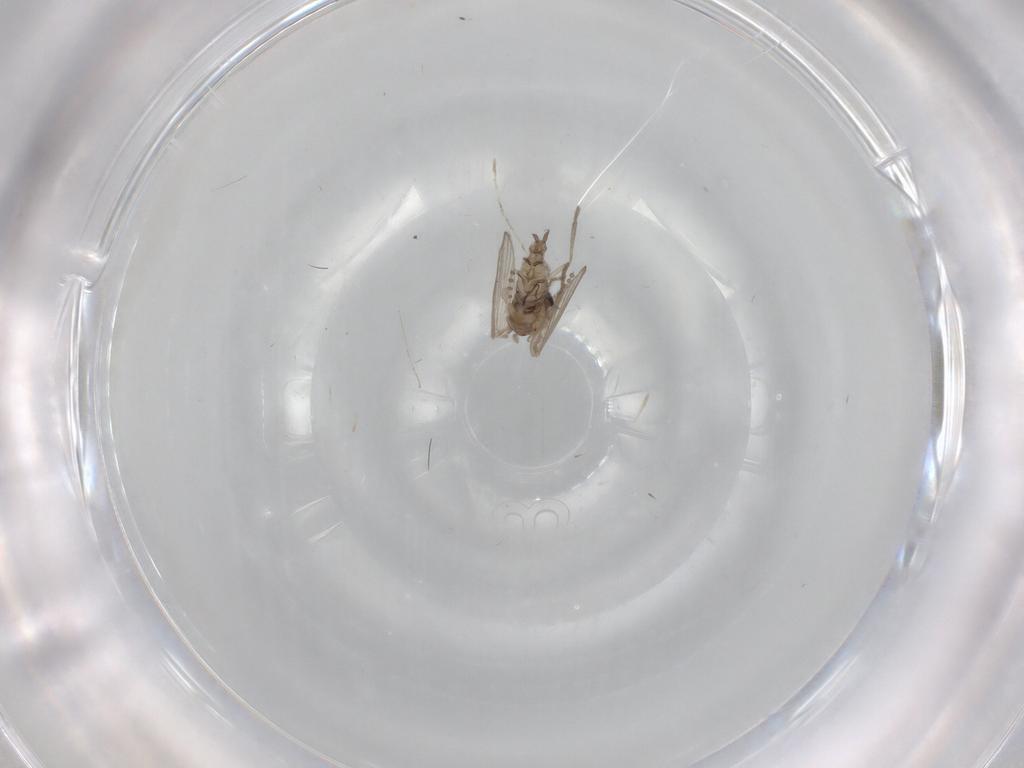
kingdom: Animalia
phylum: Arthropoda
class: Insecta
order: Diptera
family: Psychodidae
